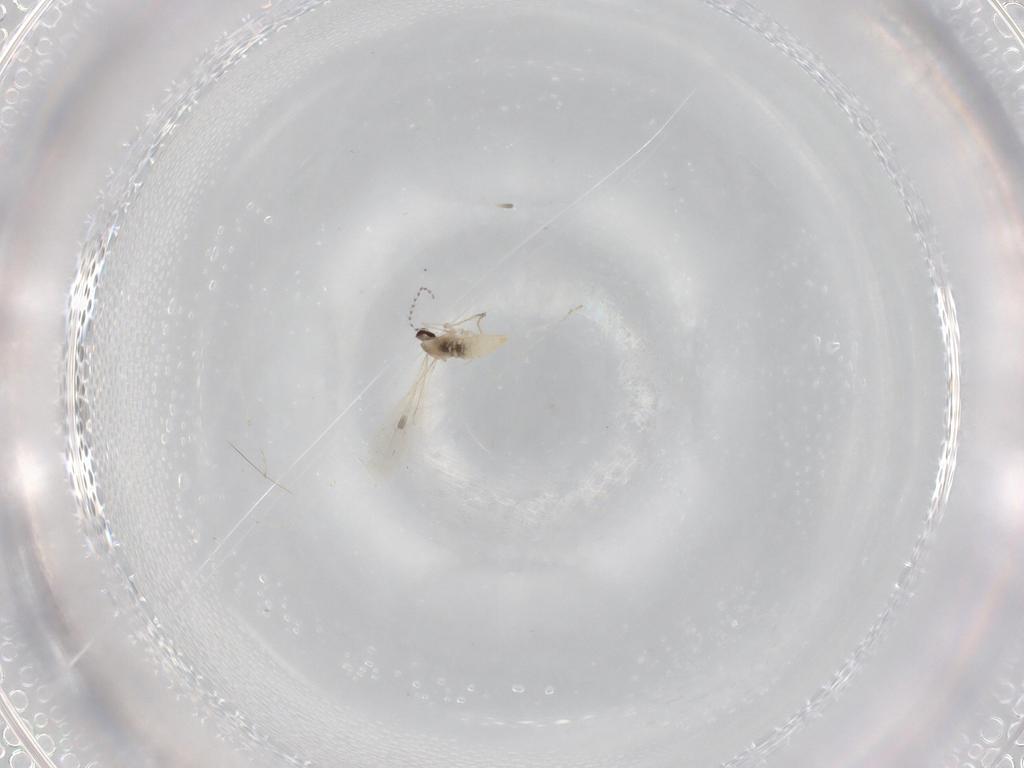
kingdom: Animalia
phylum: Arthropoda
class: Insecta
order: Diptera
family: Cecidomyiidae
